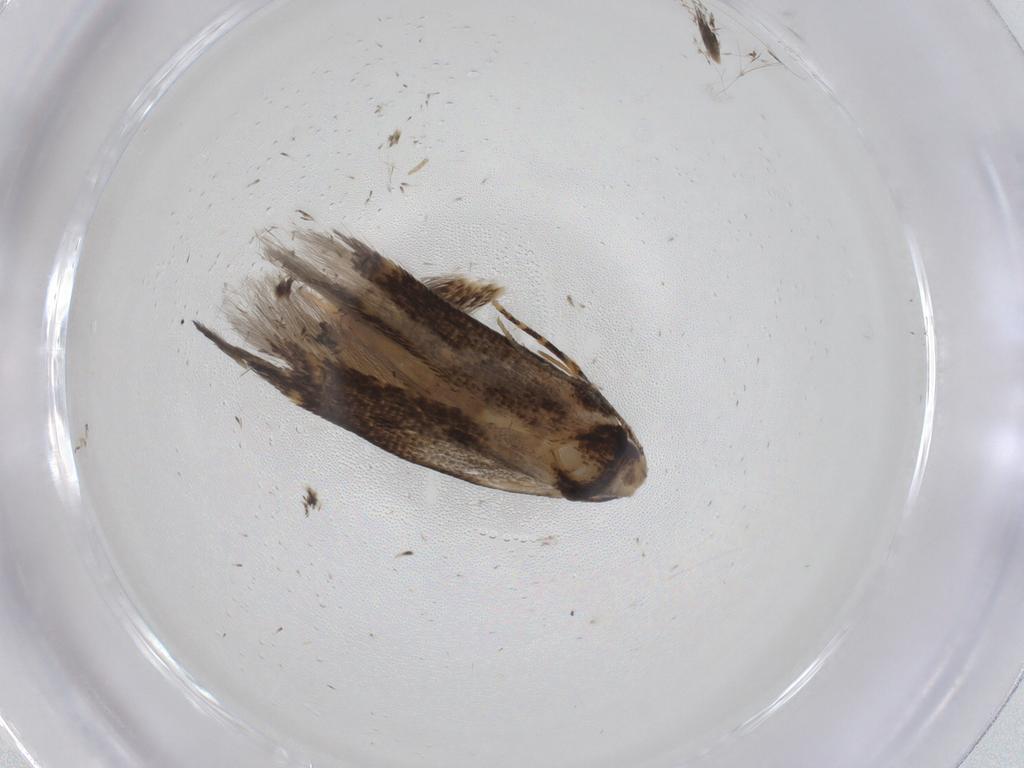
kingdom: Animalia
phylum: Arthropoda
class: Insecta
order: Lepidoptera
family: Cosmopterigidae
